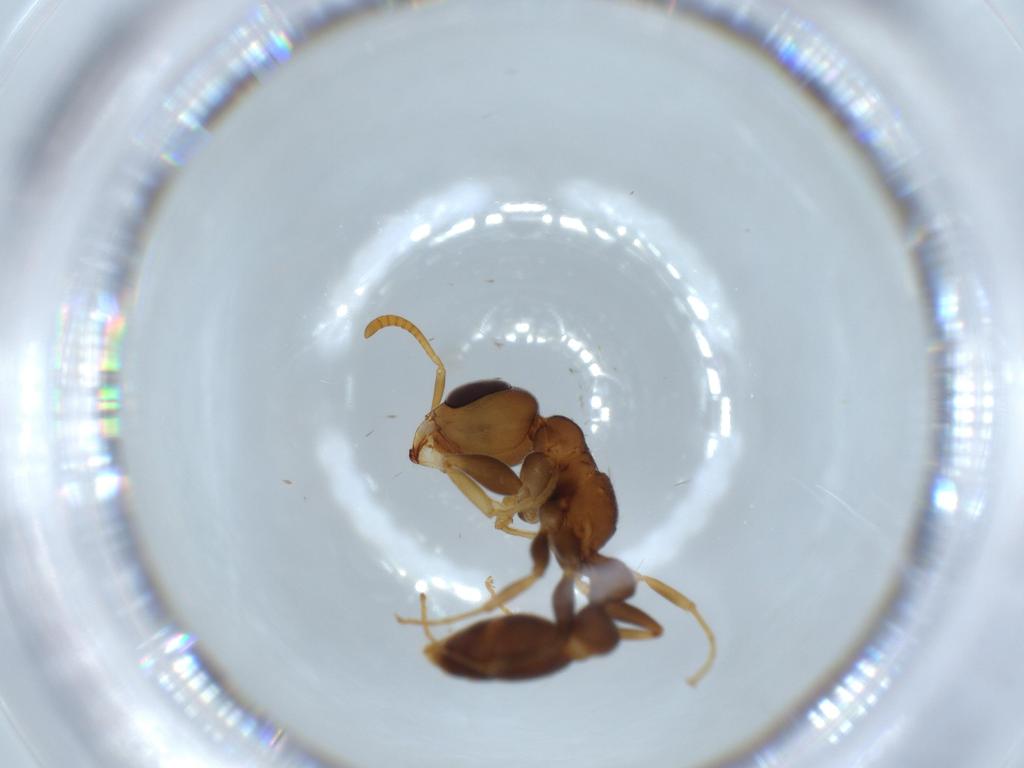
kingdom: Animalia
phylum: Arthropoda
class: Insecta
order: Hymenoptera
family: Formicidae
